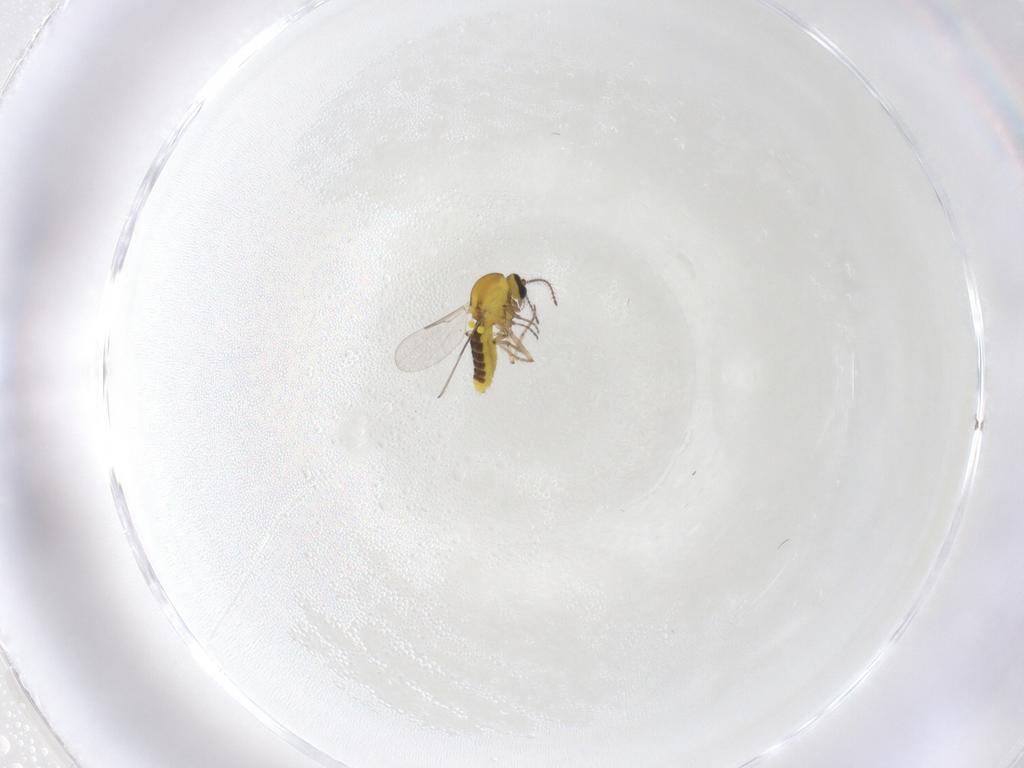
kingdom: Animalia
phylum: Arthropoda
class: Insecta
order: Diptera
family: Ceratopogonidae
